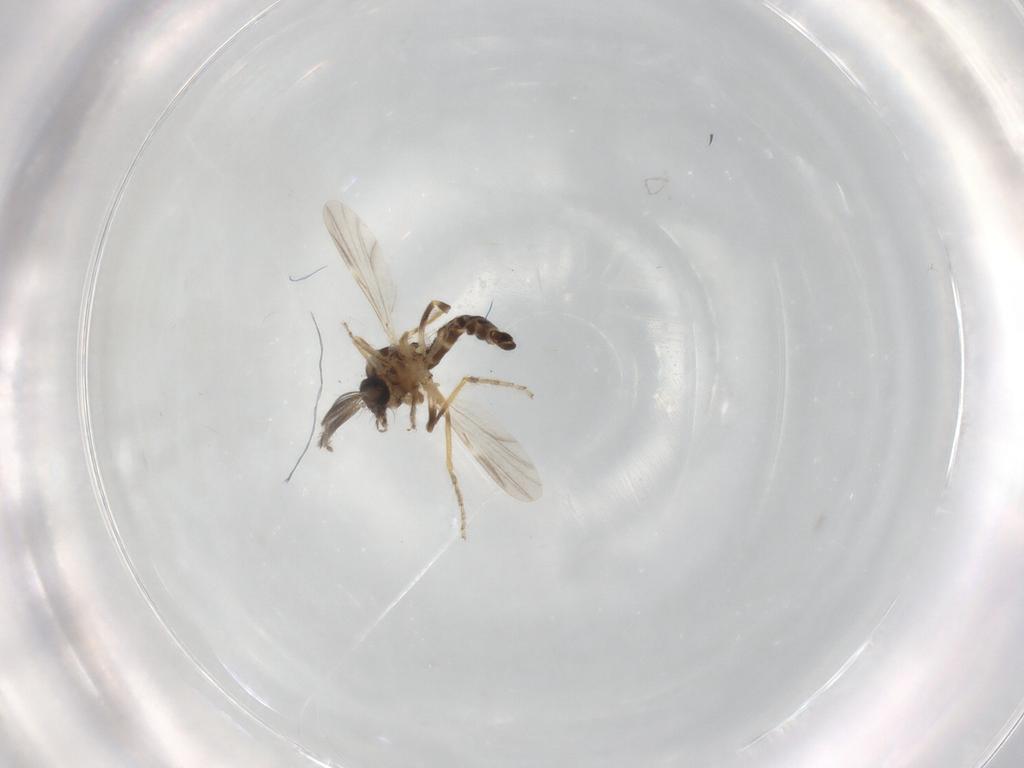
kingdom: Animalia
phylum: Arthropoda
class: Insecta
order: Diptera
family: Ceratopogonidae
